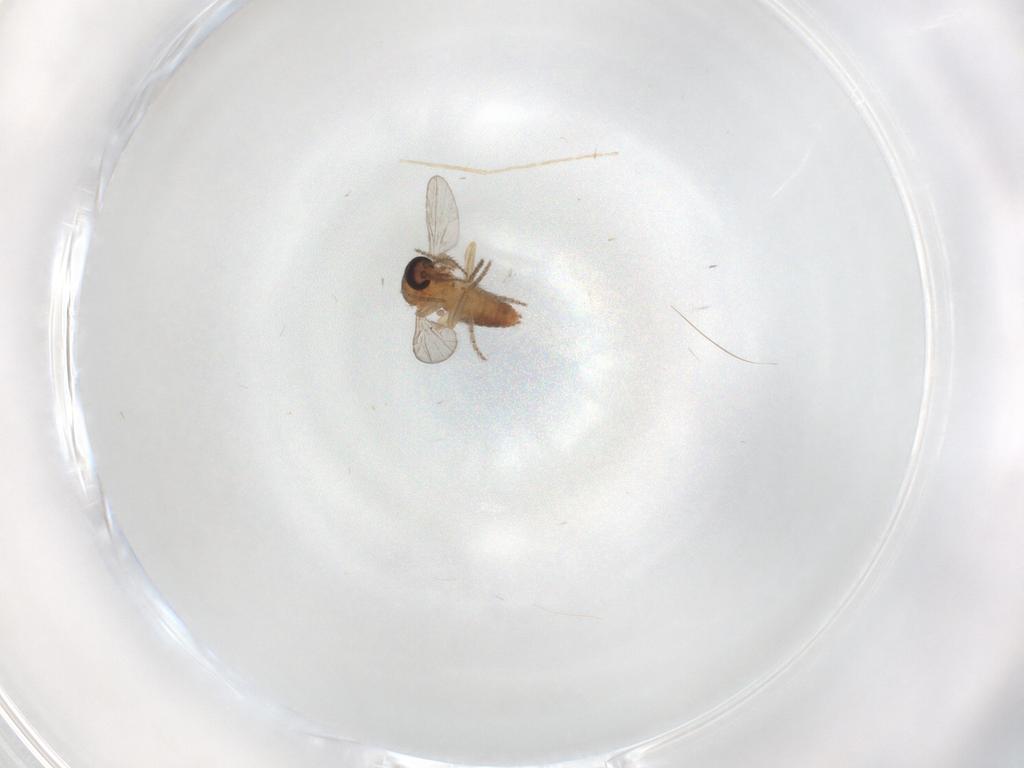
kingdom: Animalia
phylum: Arthropoda
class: Insecta
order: Diptera
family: Ceratopogonidae
